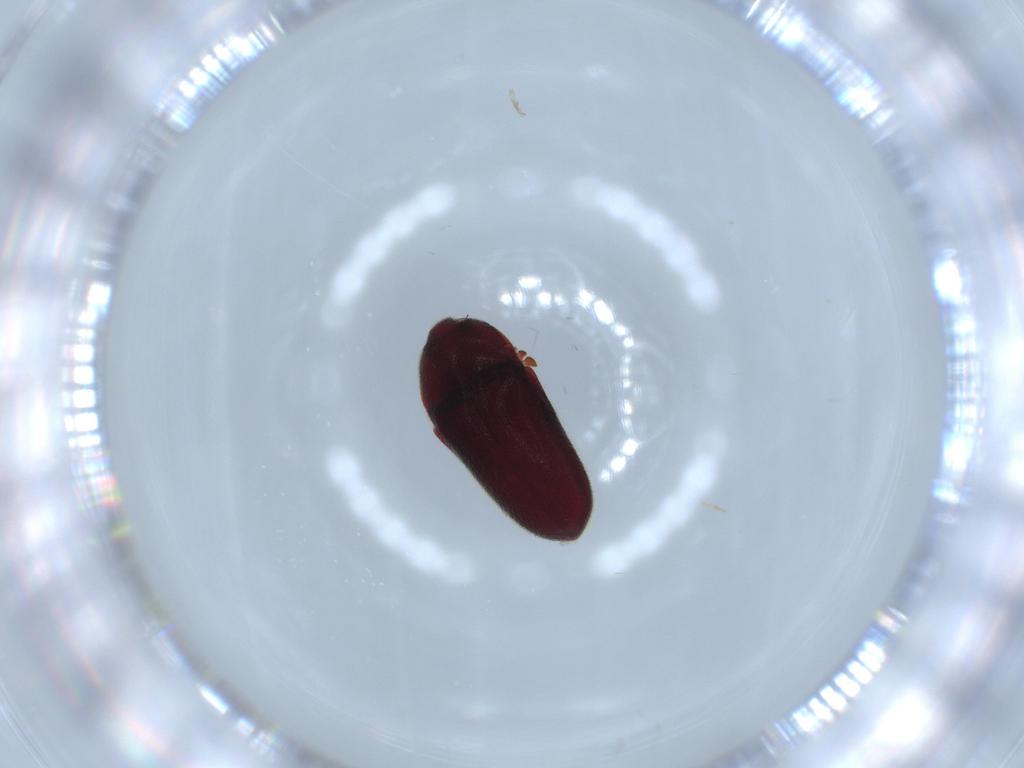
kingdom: Animalia
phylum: Arthropoda
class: Insecta
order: Coleoptera
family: Throscidae
